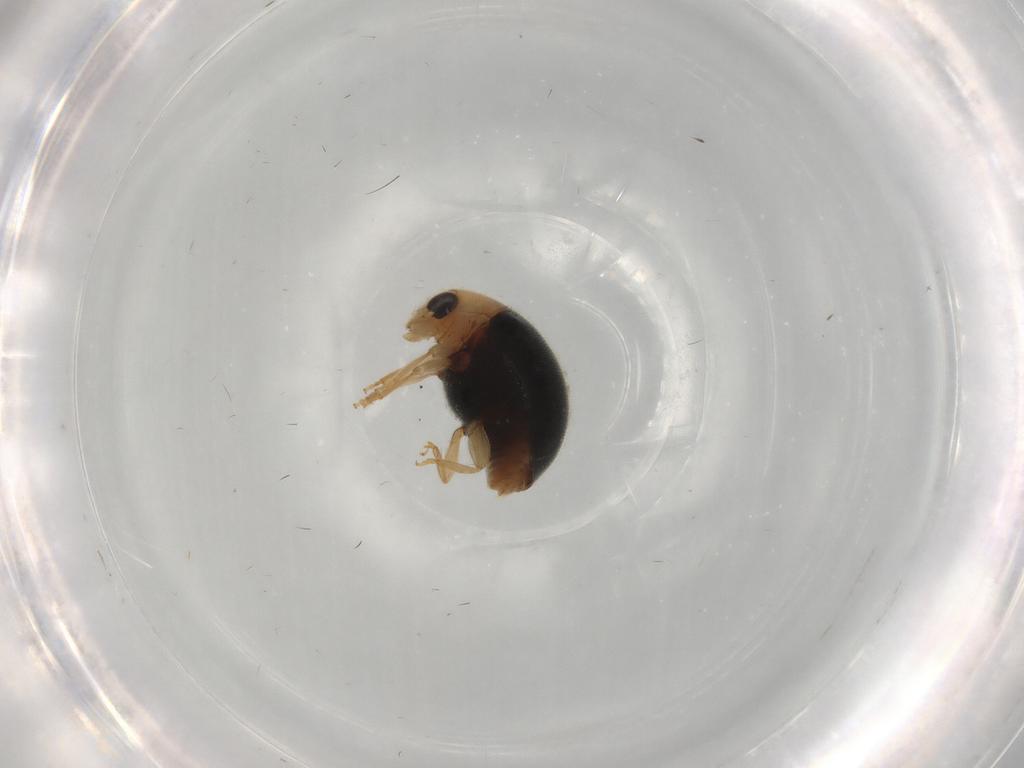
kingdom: Animalia
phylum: Arthropoda
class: Insecta
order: Coleoptera
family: Coccinellidae
